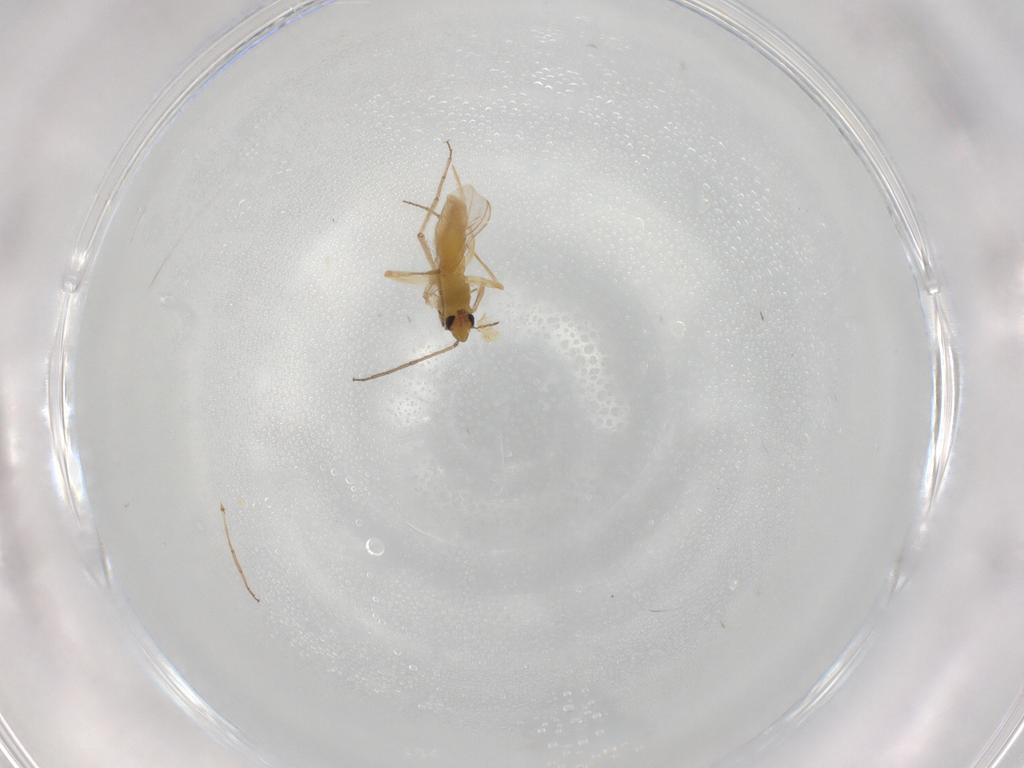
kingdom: Animalia
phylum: Arthropoda
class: Insecta
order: Diptera
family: Chironomidae
